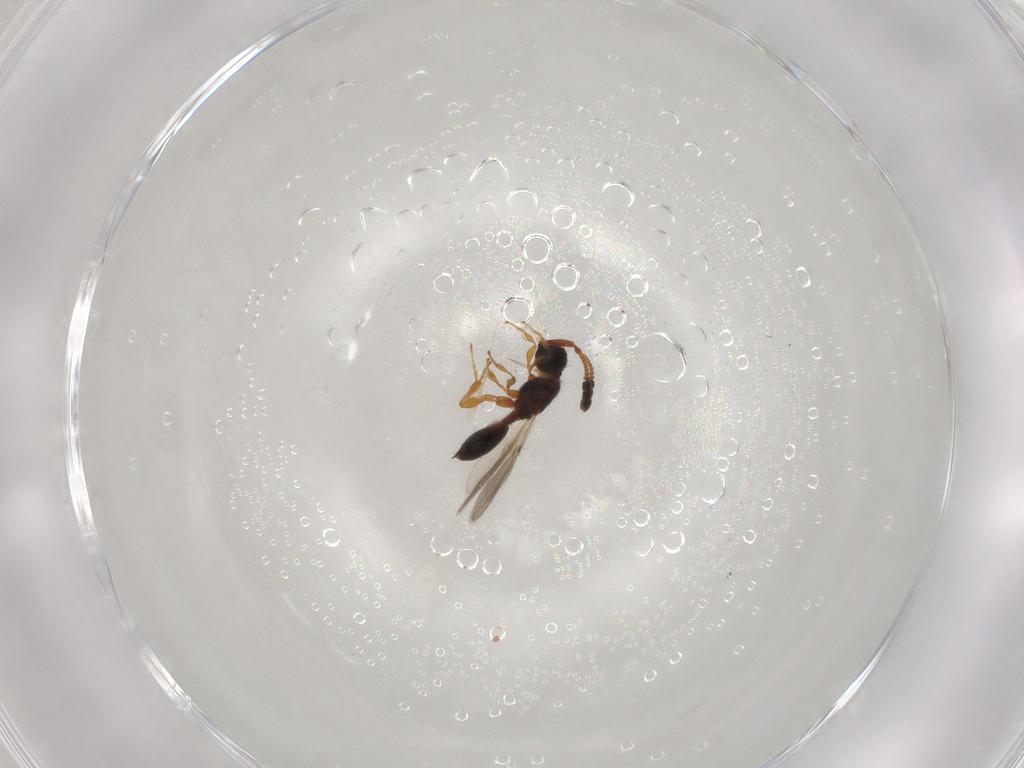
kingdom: Animalia
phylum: Arthropoda
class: Insecta
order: Hymenoptera
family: Diapriidae
